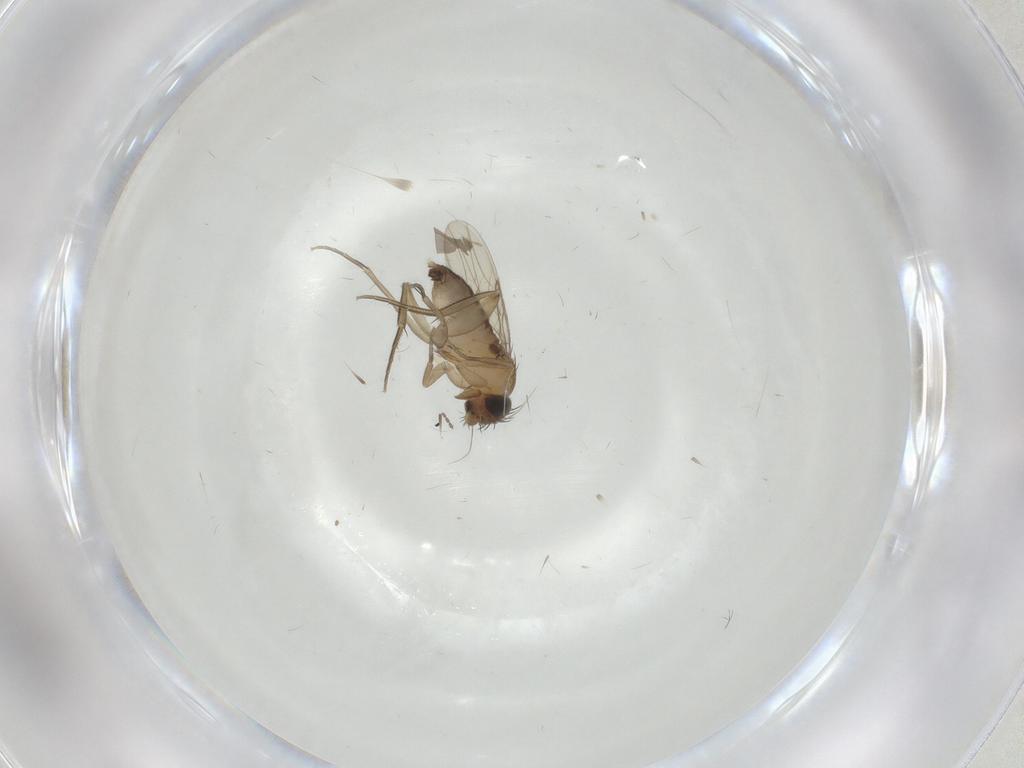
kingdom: Animalia
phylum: Arthropoda
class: Insecta
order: Diptera
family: Phoridae
